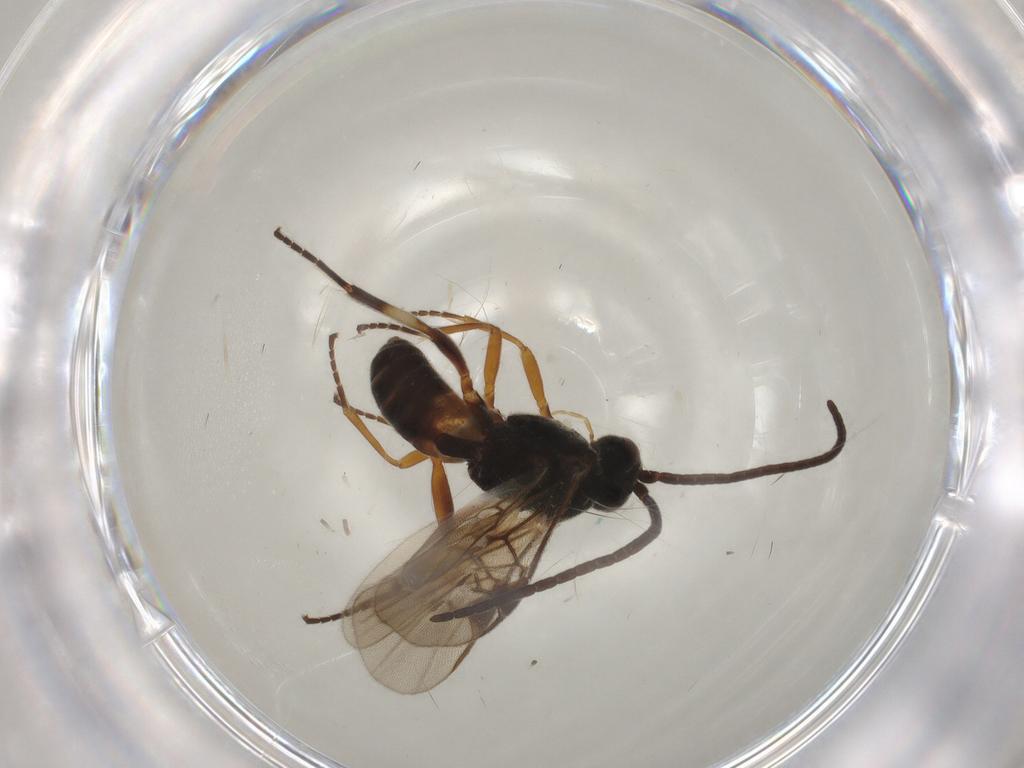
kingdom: Animalia
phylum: Arthropoda
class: Insecta
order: Hymenoptera
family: Braconidae
